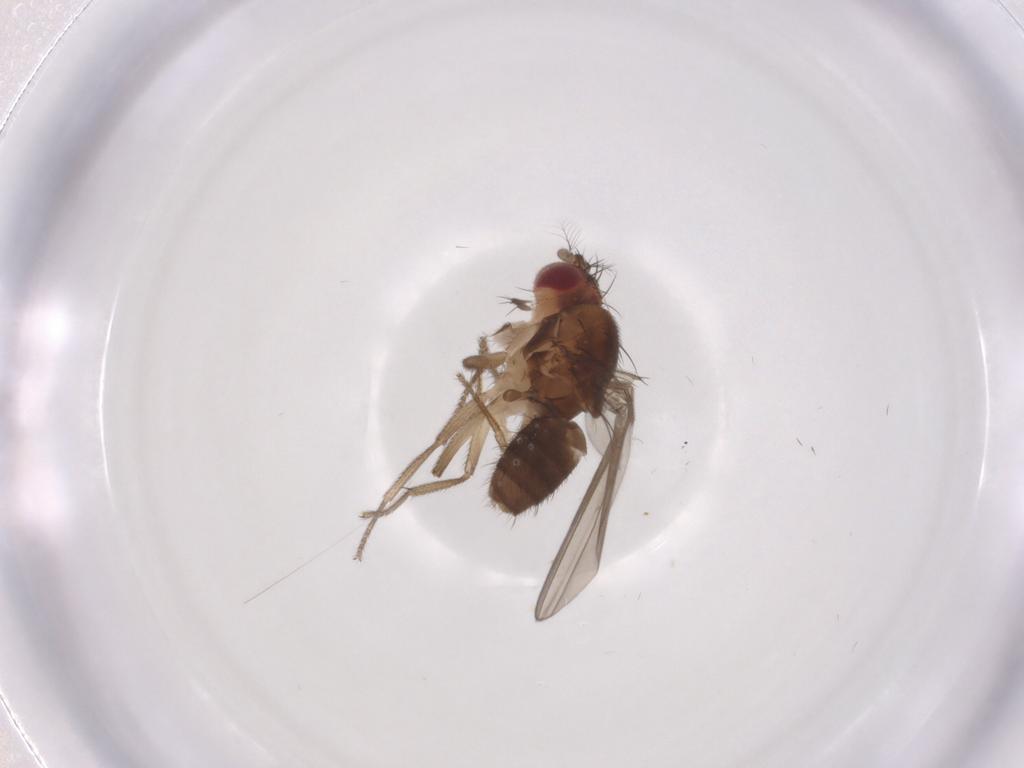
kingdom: Animalia
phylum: Arthropoda
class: Insecta
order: Diptera
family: Drosophilidae
